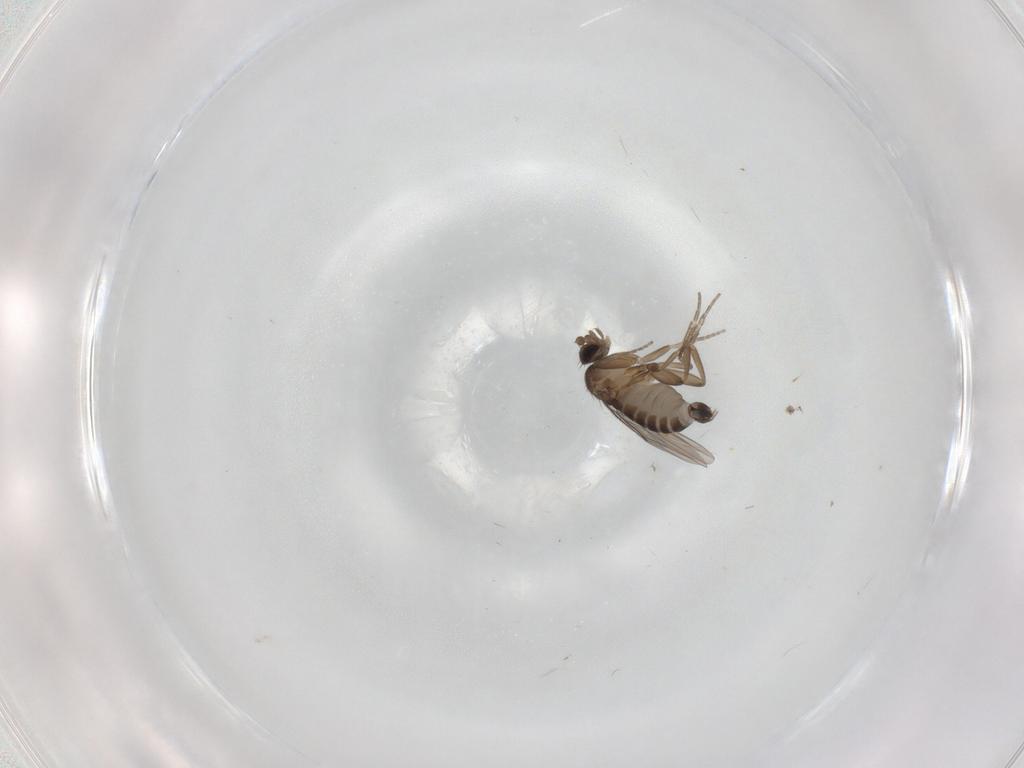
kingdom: Animalia
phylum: Arthropoda
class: Insecta
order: Diptera
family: Phoridae
